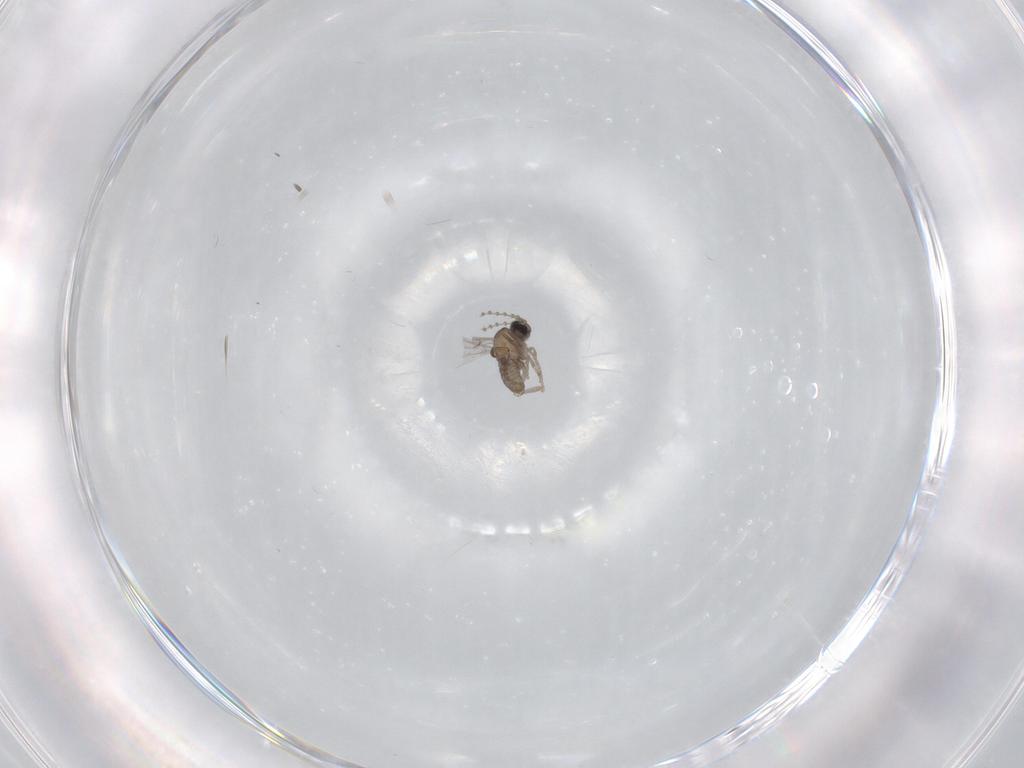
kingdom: Animalia
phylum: Arthropoda
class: Insecta
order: Diptera
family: Cecidomyiidae
